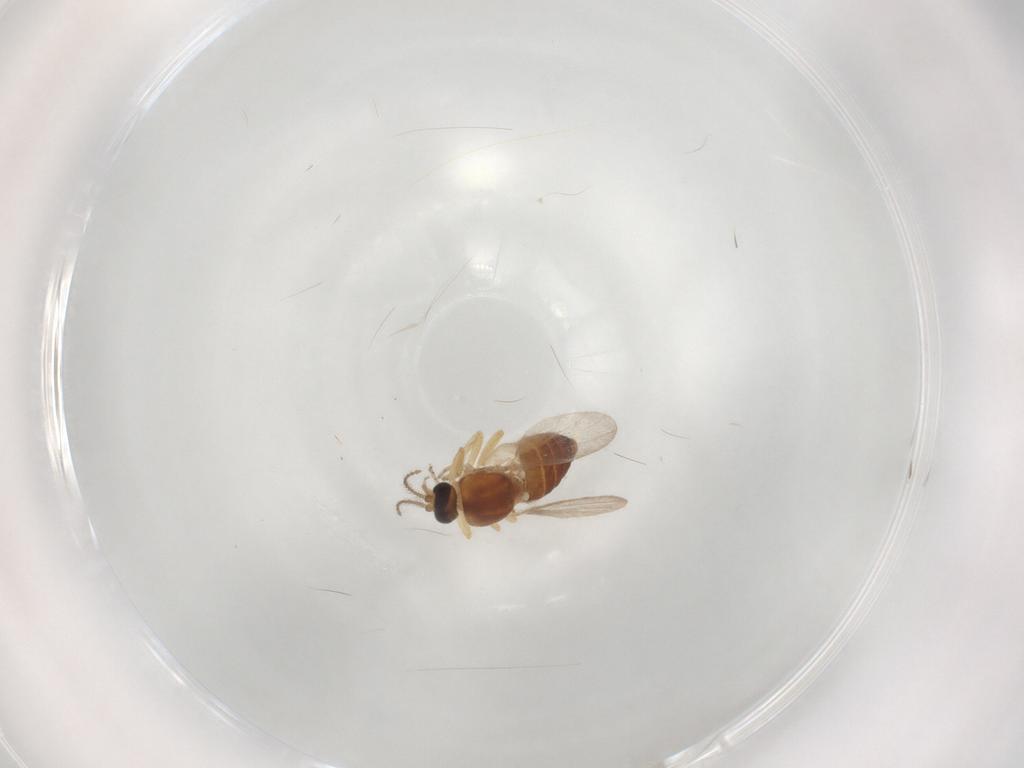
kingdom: Animalia
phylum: Arthropoda
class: Insecta
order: Diptera
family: Ceratopogonidae
